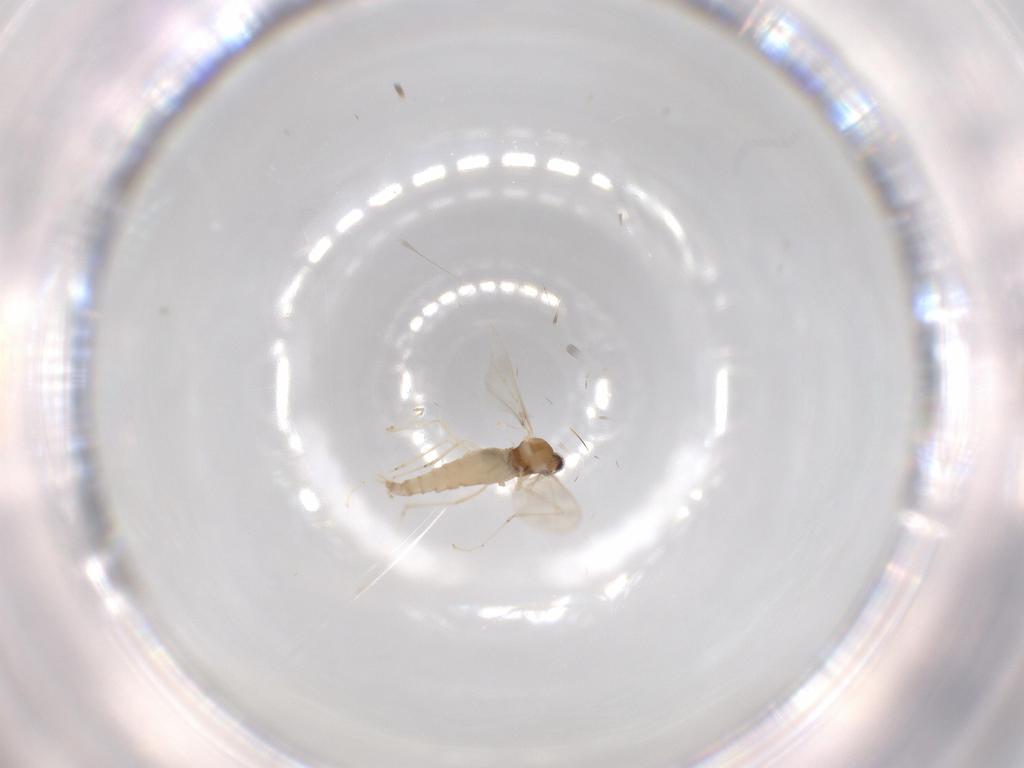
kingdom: Animalia
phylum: Arthropoda
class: Insecta
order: Diptera
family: Chironomidae
